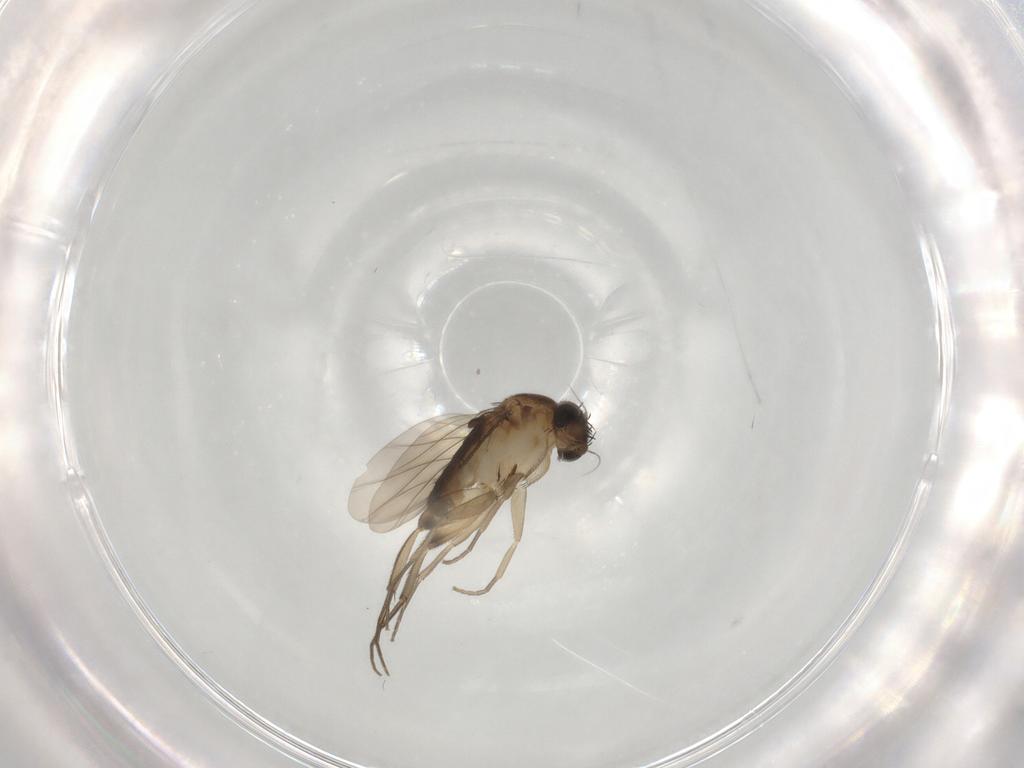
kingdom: Animalia
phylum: Arthropoda
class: Insecta
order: Diptera
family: Phoridae
